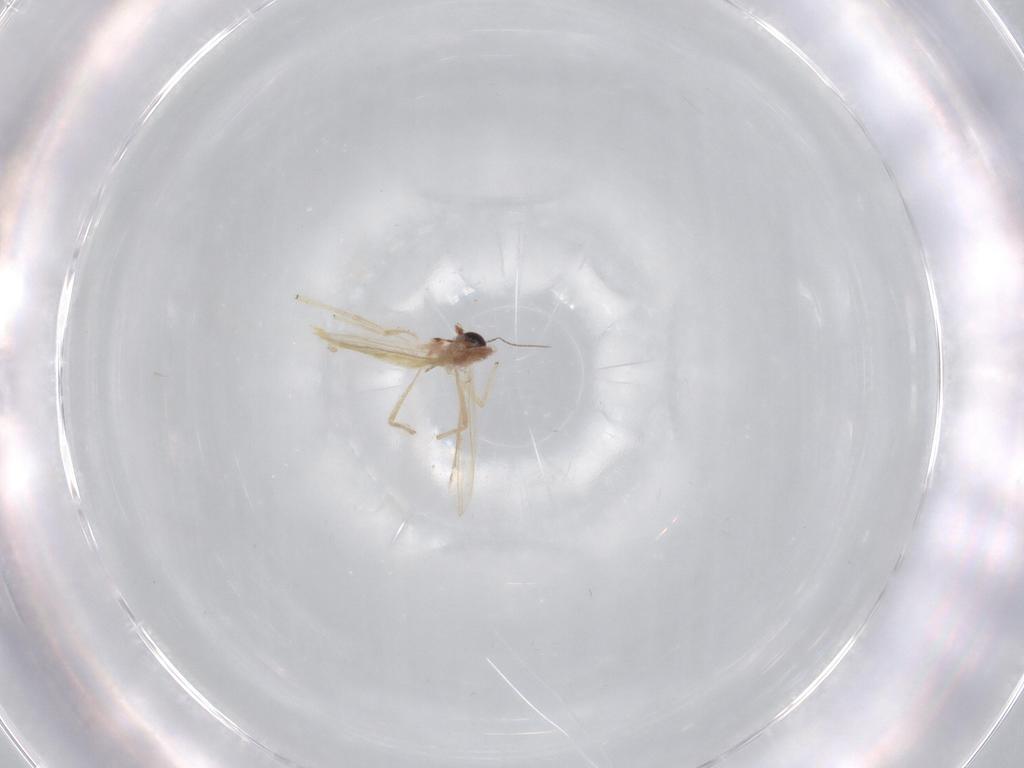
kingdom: Animalia
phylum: Arthropoda
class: Insecta
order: Diptera
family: Chironomidae
